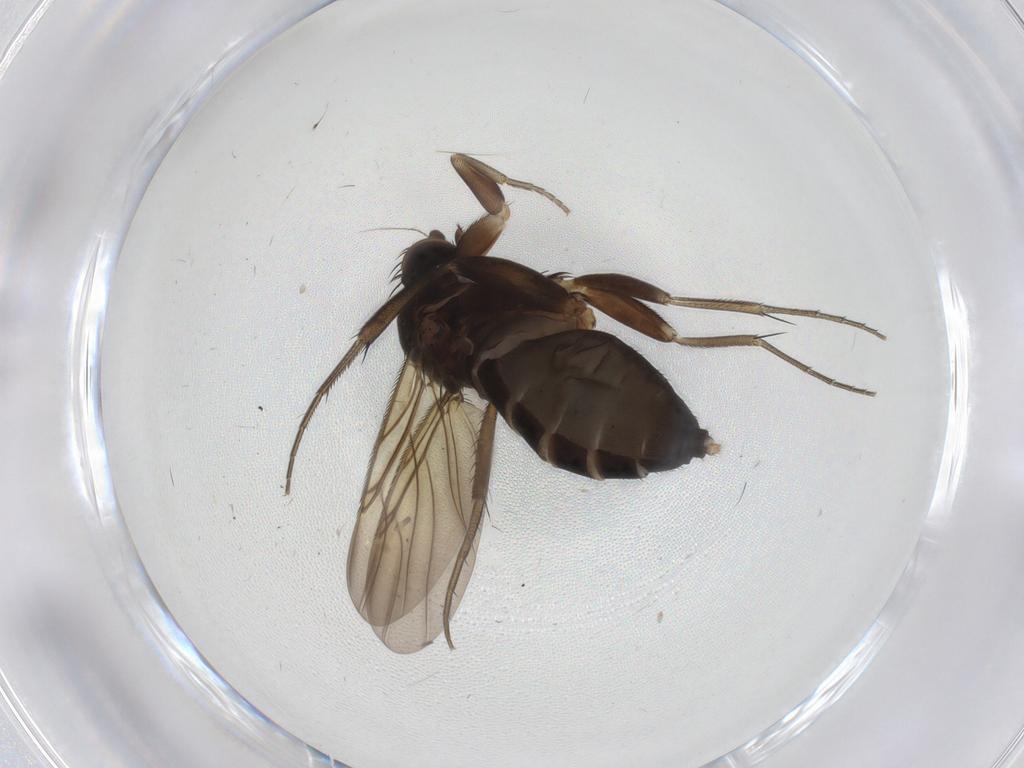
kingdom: Animalia
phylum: Arthropoda
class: Insecta
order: Diptera
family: Phoridae
